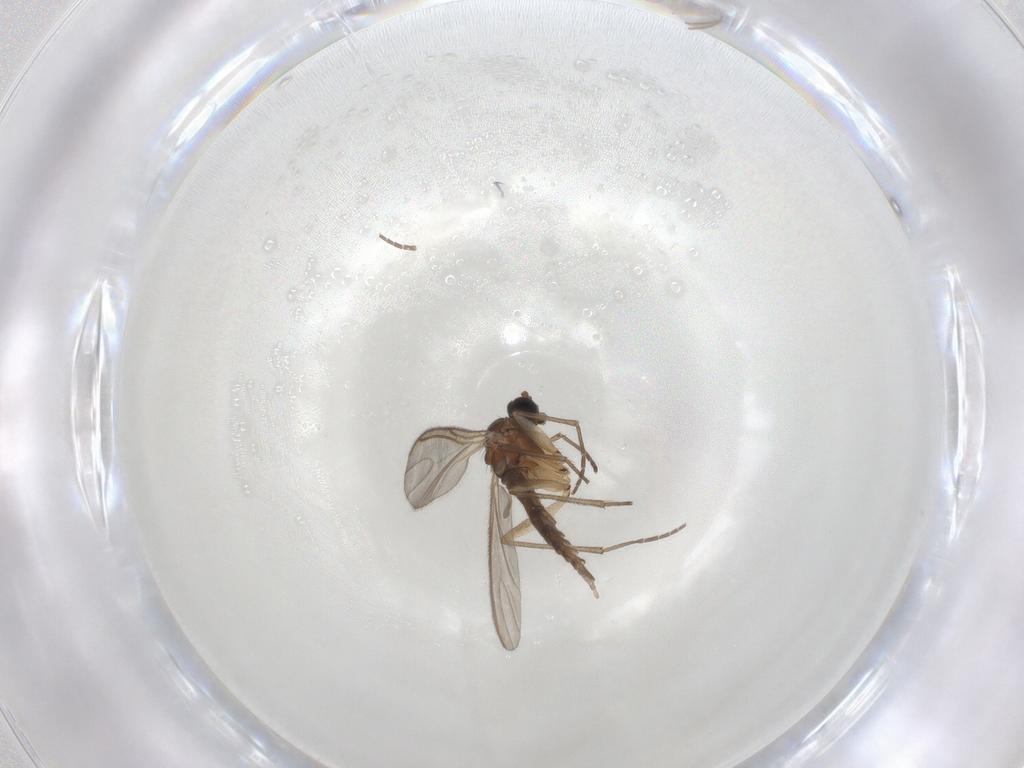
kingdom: Animalia
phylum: Arthropoda
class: Insecta
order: Diptera
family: Sciaridae
